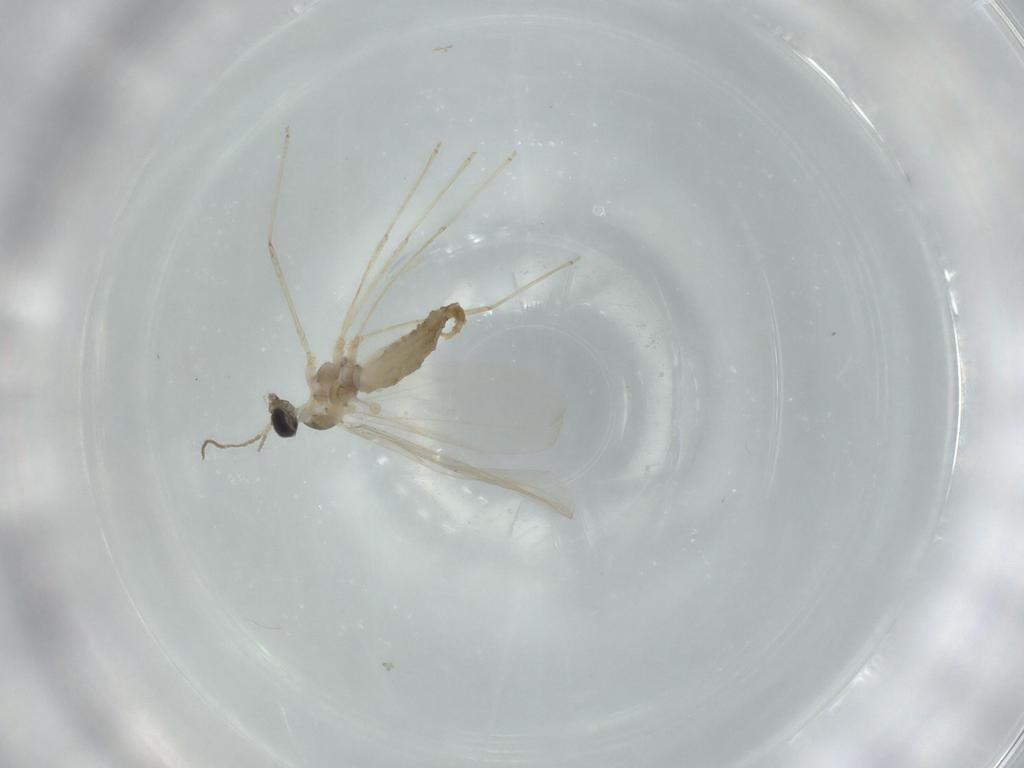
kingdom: Animalia
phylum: Arthropoda
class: Insecta
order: Diptera
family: Cecidomyiidae
